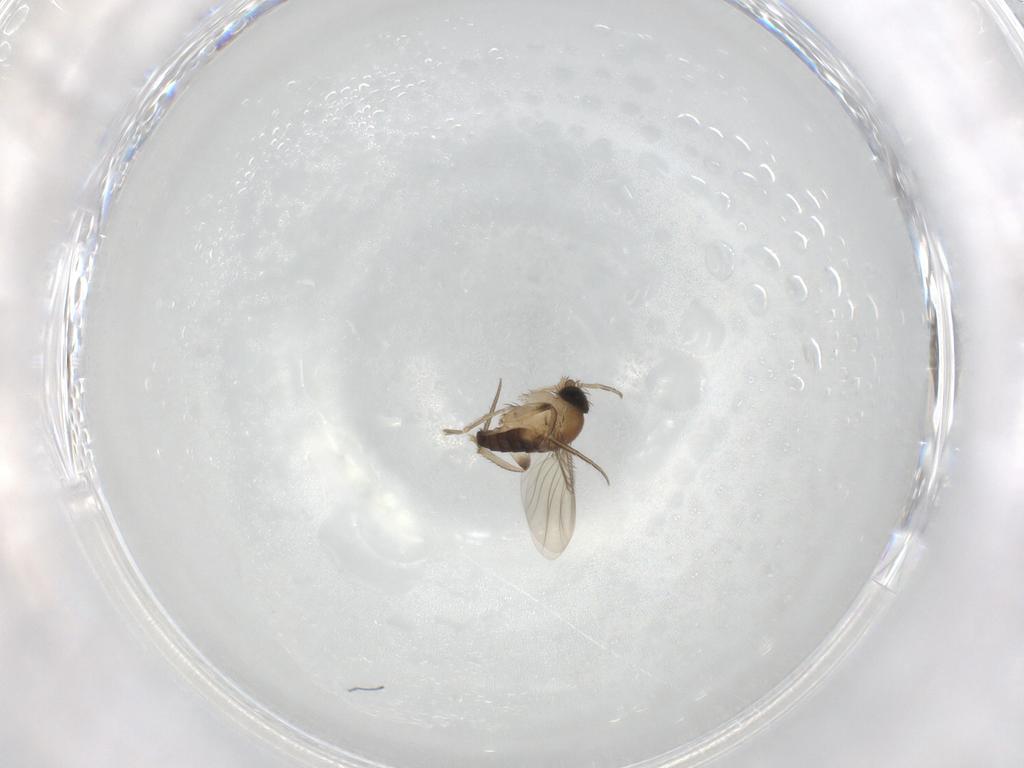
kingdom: Animalia
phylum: Arthropoda
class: Insecta
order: Diptera
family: Phoridae
